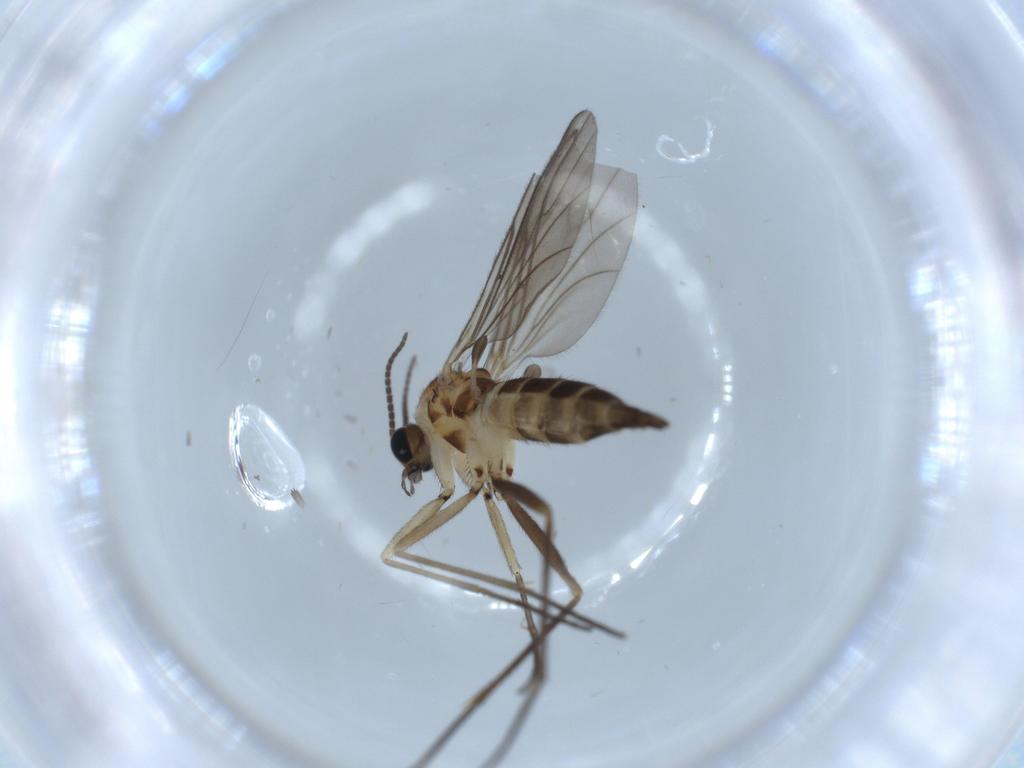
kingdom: Animalia
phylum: Arthropoda
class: Insecta
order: Diptera
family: Sciaridae
